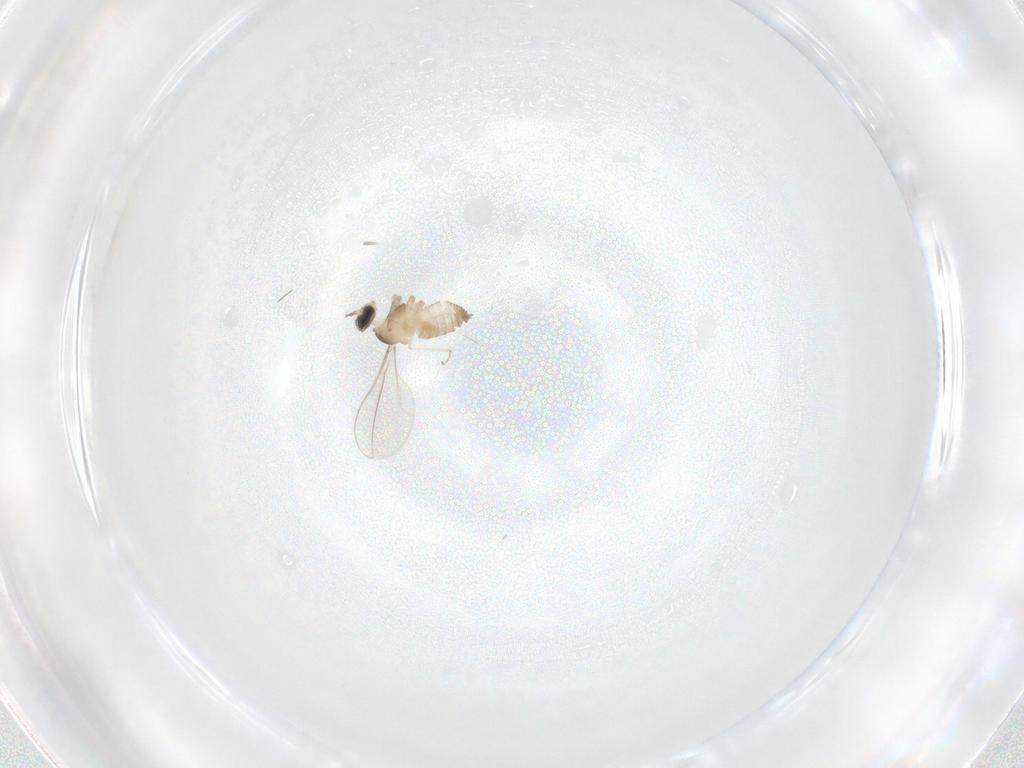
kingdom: Animalia
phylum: Arthropoda
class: Insecta
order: Diptera
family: Cecidomyiidae
